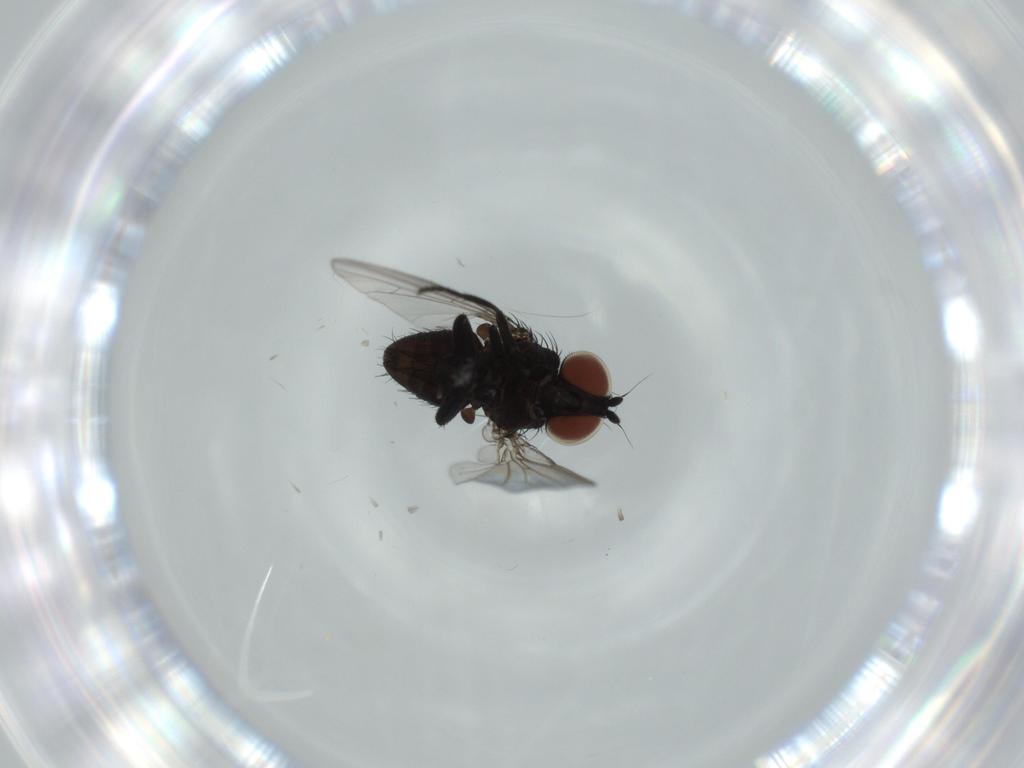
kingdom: Animalia
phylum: Arthropoda
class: Insecta
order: Diptera
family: Milichiidae
